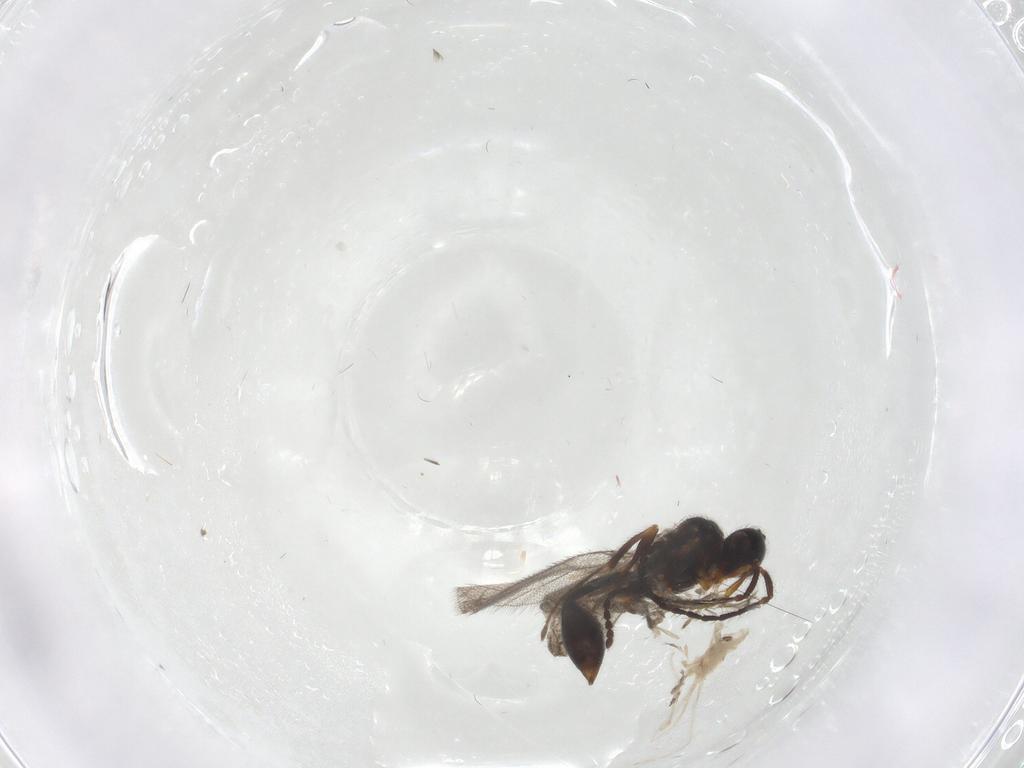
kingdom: Animalia
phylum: Arthropoda
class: Insecta
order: Diptera
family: Cecidomyiidae
